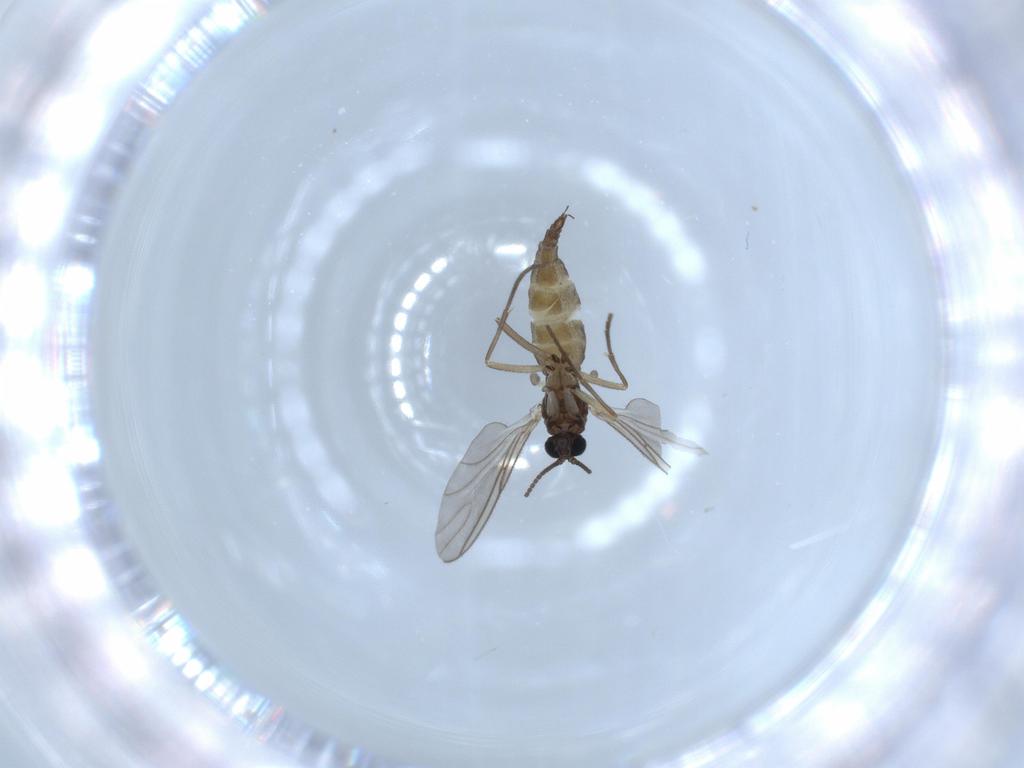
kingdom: Animalia
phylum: Arthropoda
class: Insecta
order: Diptera
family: Sciaridae
